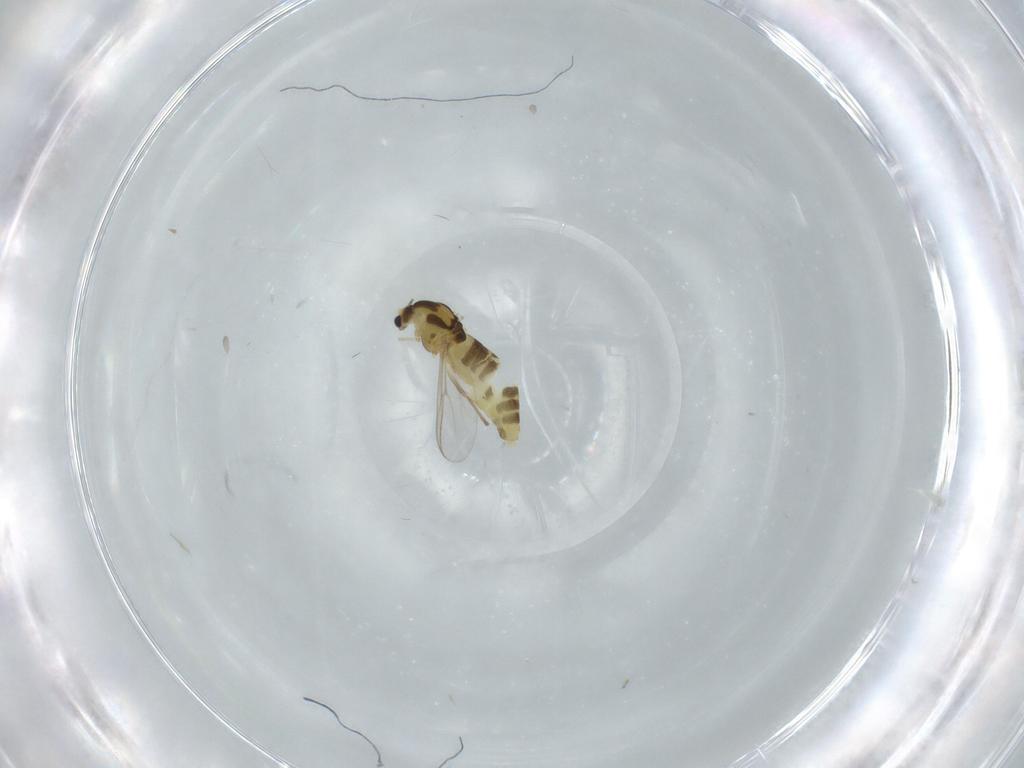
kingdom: Animalia
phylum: Arthropoda
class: Insecta
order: Diptera
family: Chironomidae
